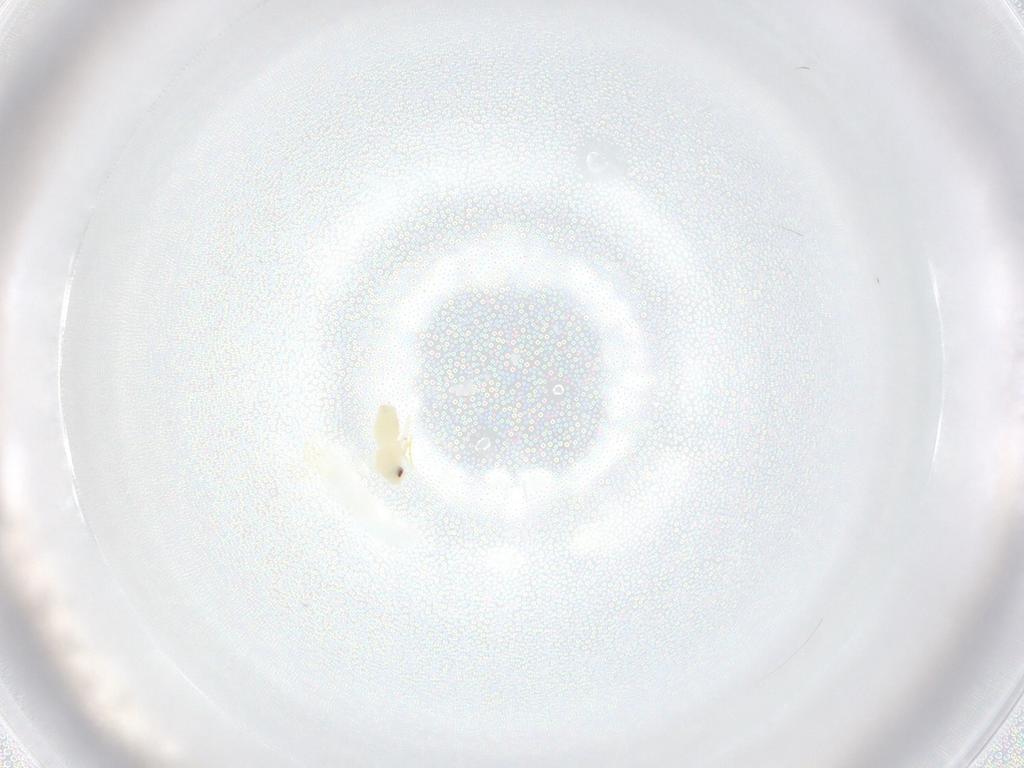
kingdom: Animalia
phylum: Arthropoda
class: Insecta
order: Hemiptera
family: Aleyrodidae
